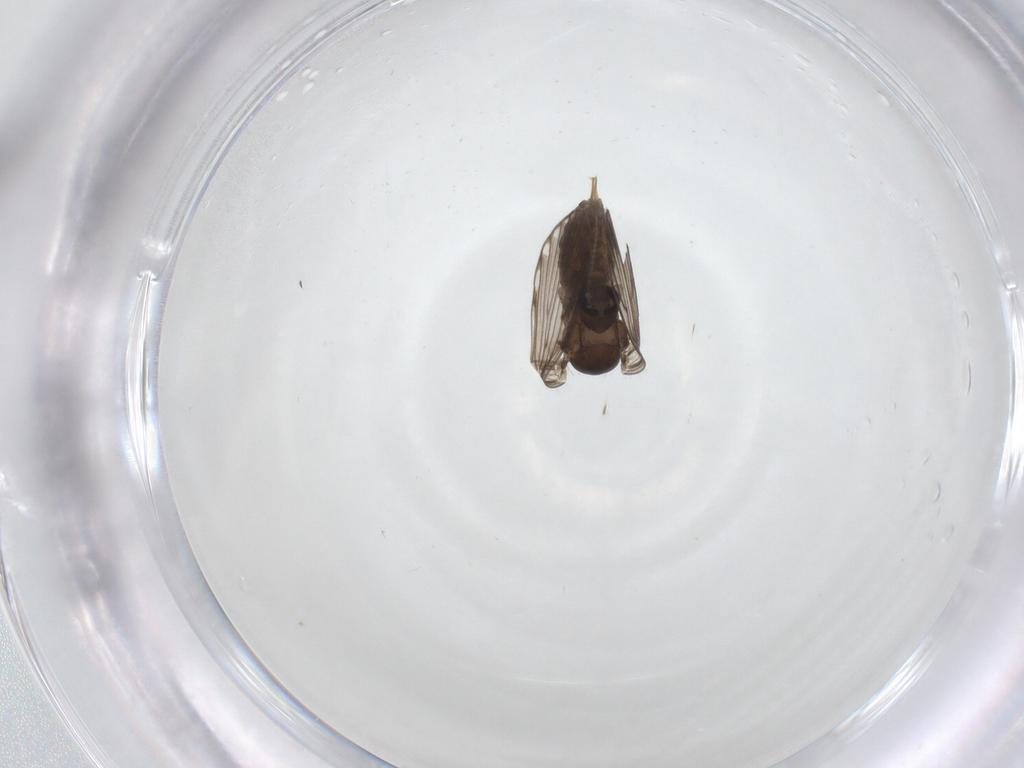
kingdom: Animalia
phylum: Arthropoda
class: Insecta
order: Diptera
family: Psychodidae
